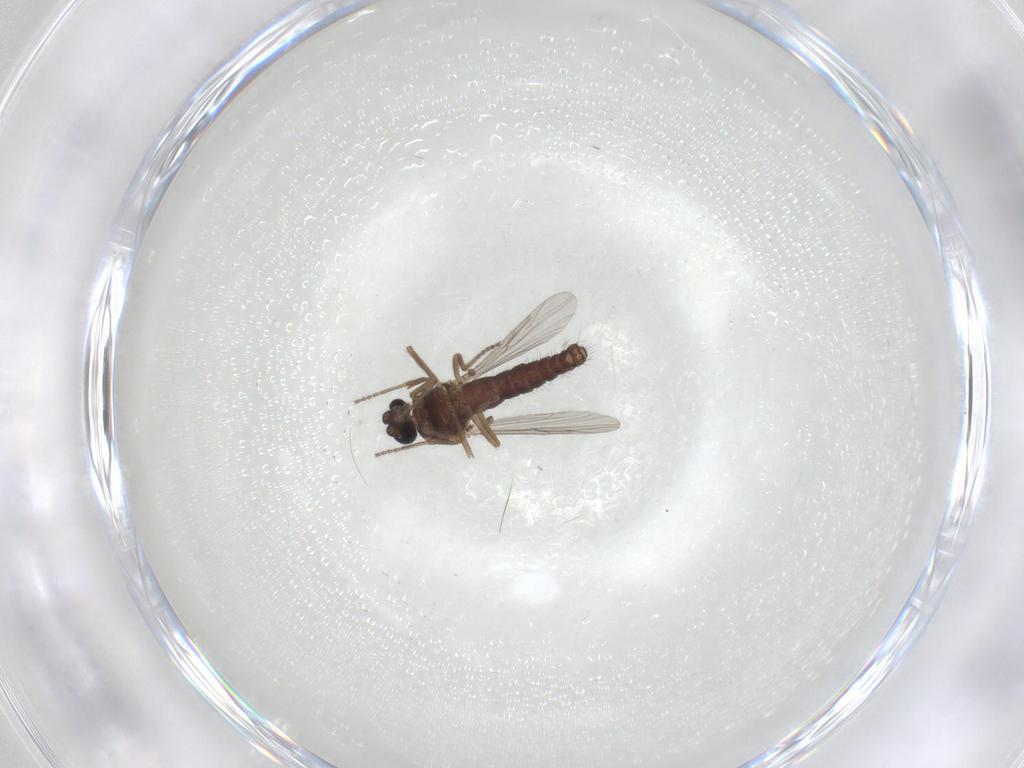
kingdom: Animalia
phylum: Arthropoda
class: Insecta
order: Diptera
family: Ceratopogonidae
